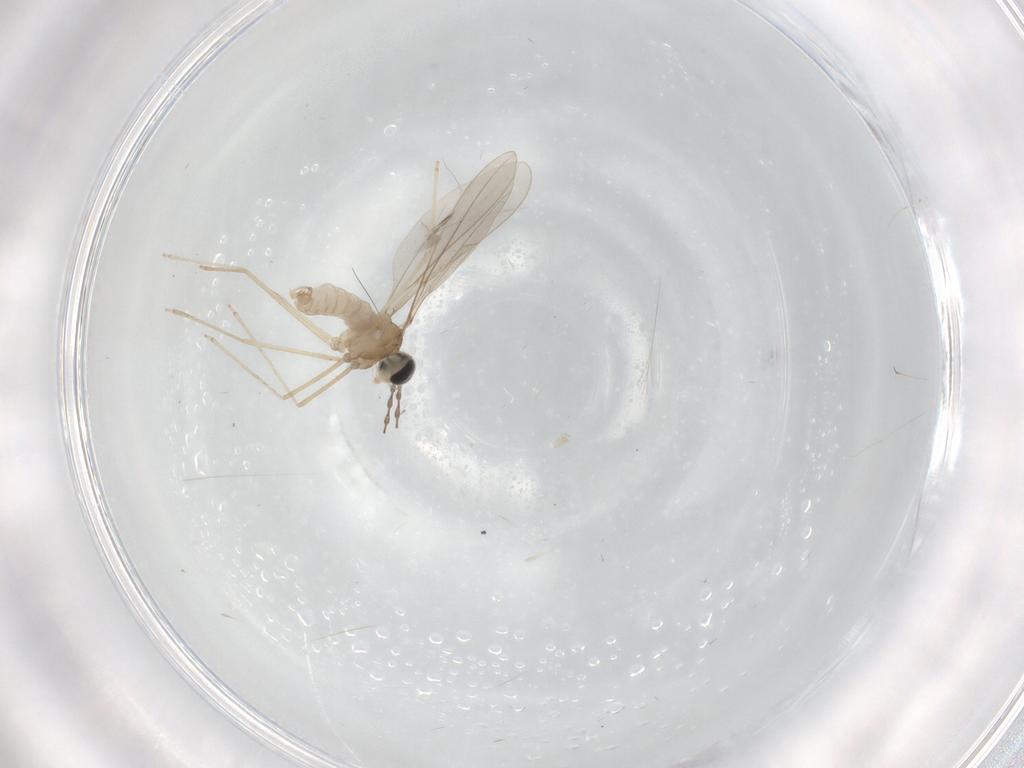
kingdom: Animalia
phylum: Arthropoda
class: Insecta
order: Diptera
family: Cecidomyiidae
